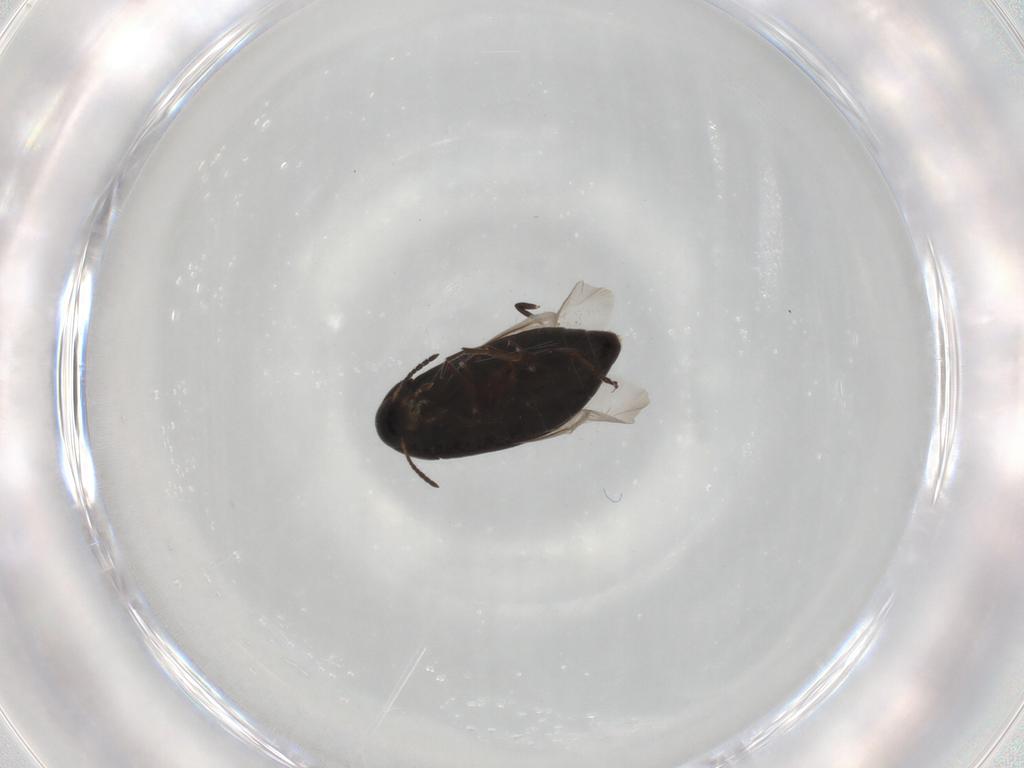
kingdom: Animalia
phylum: Arthropoda
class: Insecta
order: Coleoptera
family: Scraptiidae
